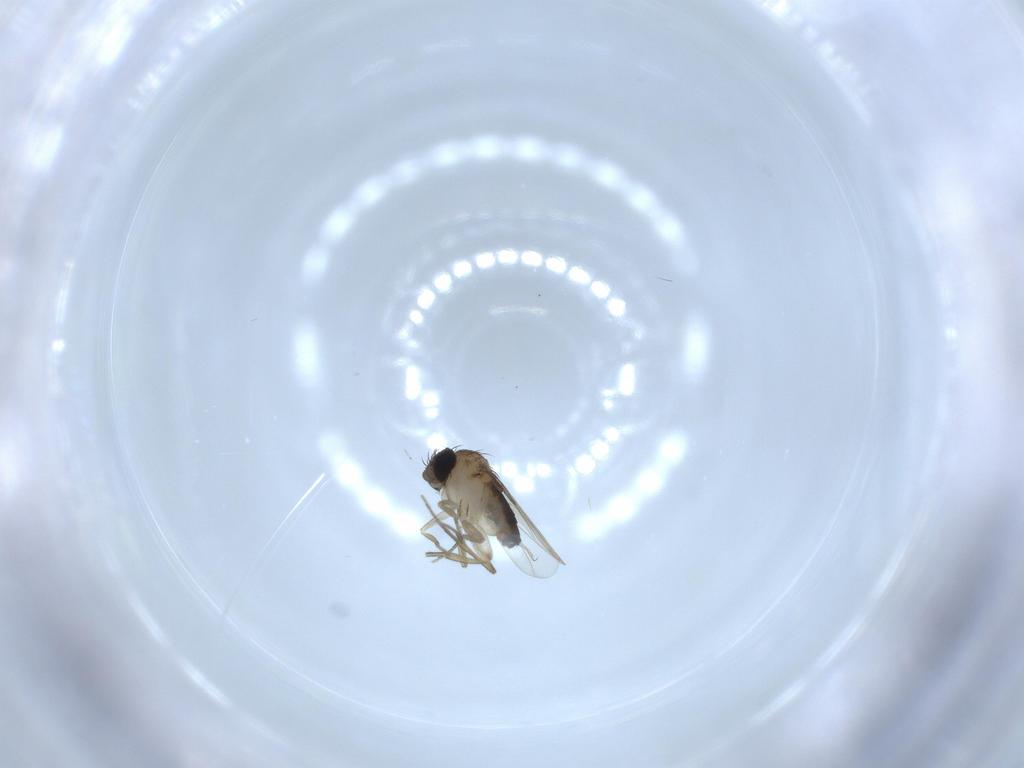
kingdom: Animalia
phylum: Arthropoda
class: Insecta
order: Diptera
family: Phoridae
